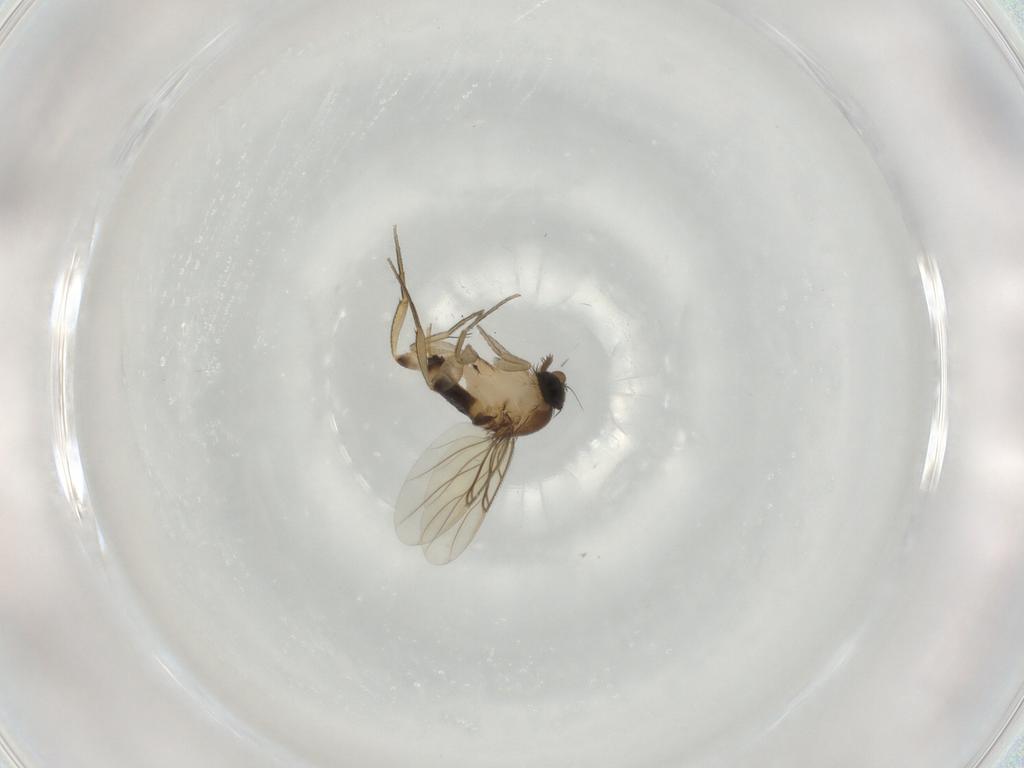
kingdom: Animalia
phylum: Arthropoda
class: Insecta
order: Diptera
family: Phoridae
